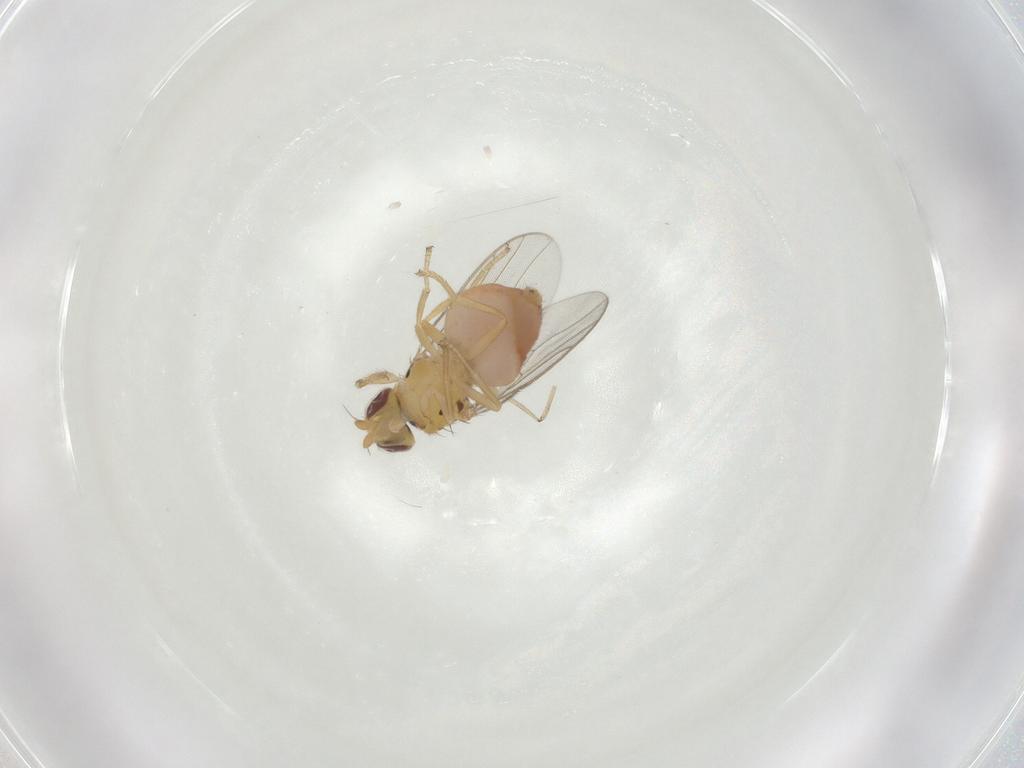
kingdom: Animalia
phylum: Arthropoda
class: Insecta
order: Diptera
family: Chloropidae
